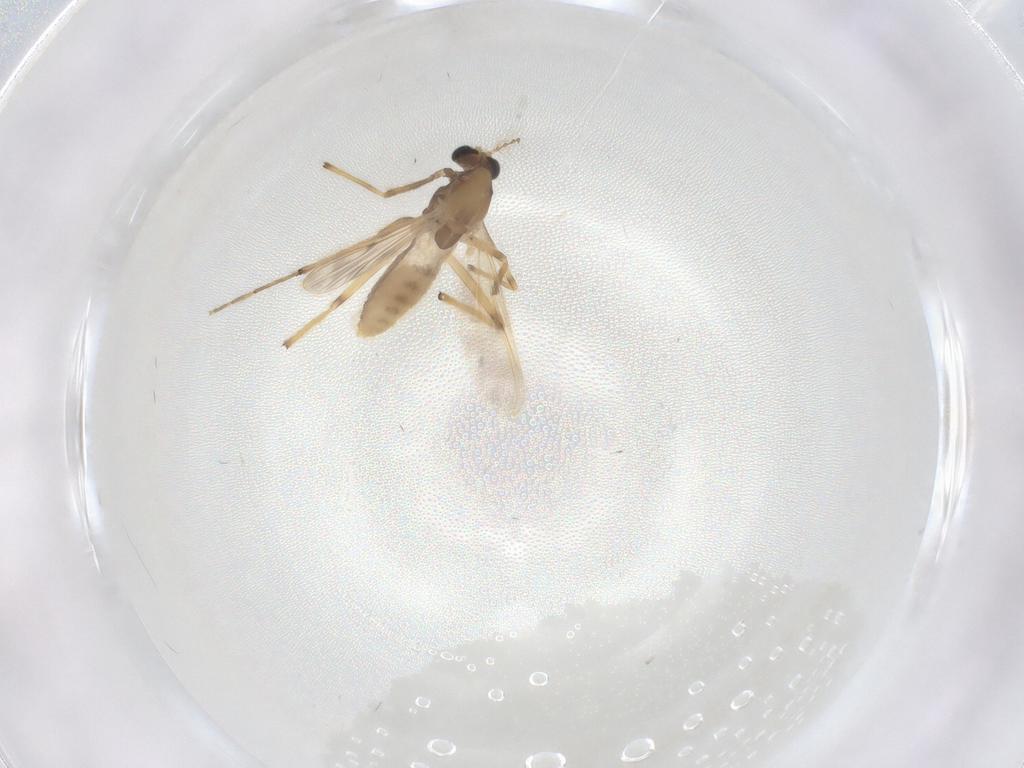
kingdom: Animalia
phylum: Arthropoda
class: Insecta
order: Diptera
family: Chironomidae
